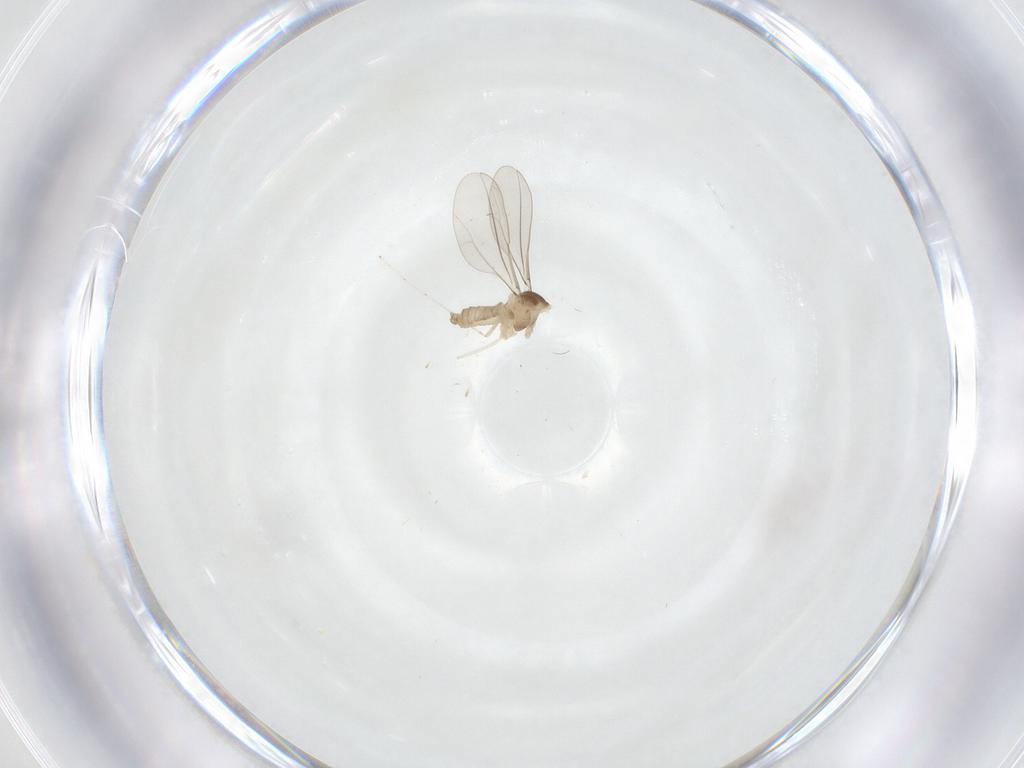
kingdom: Animalia
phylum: Arthropoda
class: Insecta
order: Diptera
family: Cecidomyiidae
